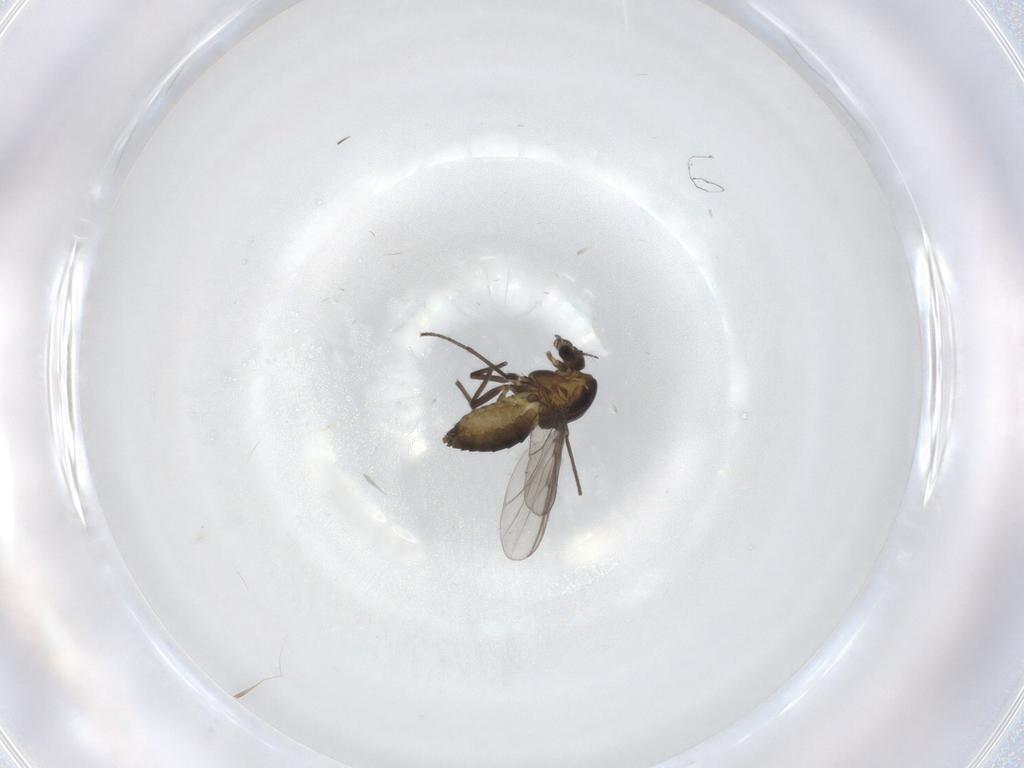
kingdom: Animalia
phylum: Arthropoda
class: Insecta
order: Diptera
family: Chironomidae
